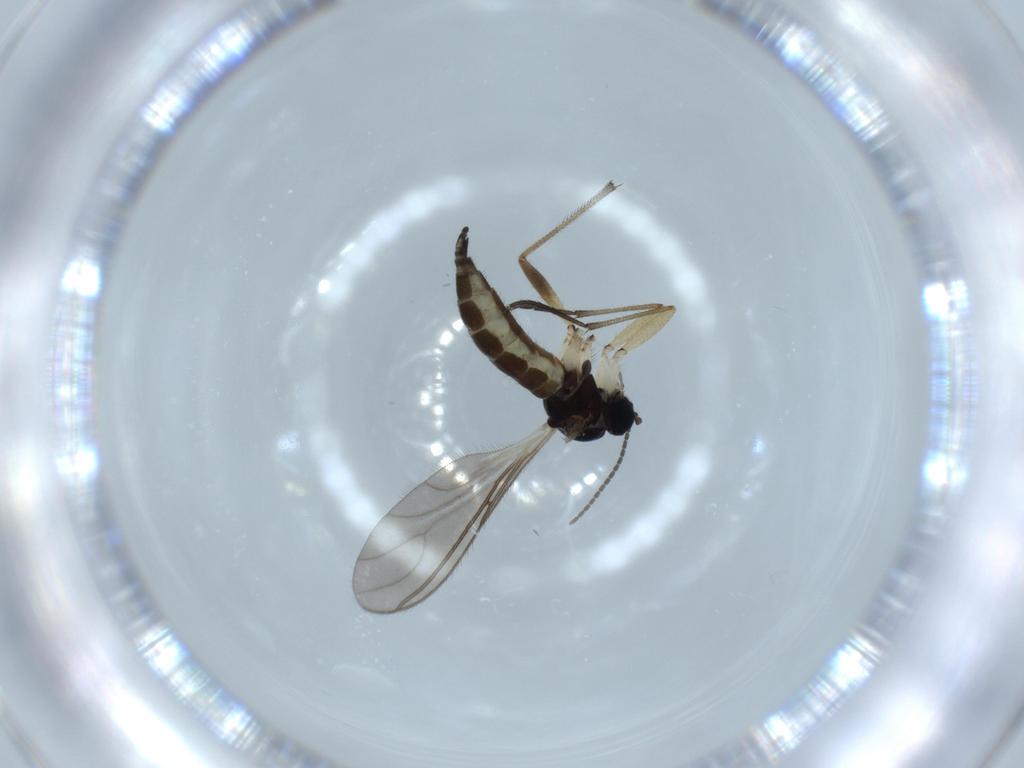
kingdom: Animalia
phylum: Arthropoda
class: Insecta
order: Diptera
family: Sciaridae
